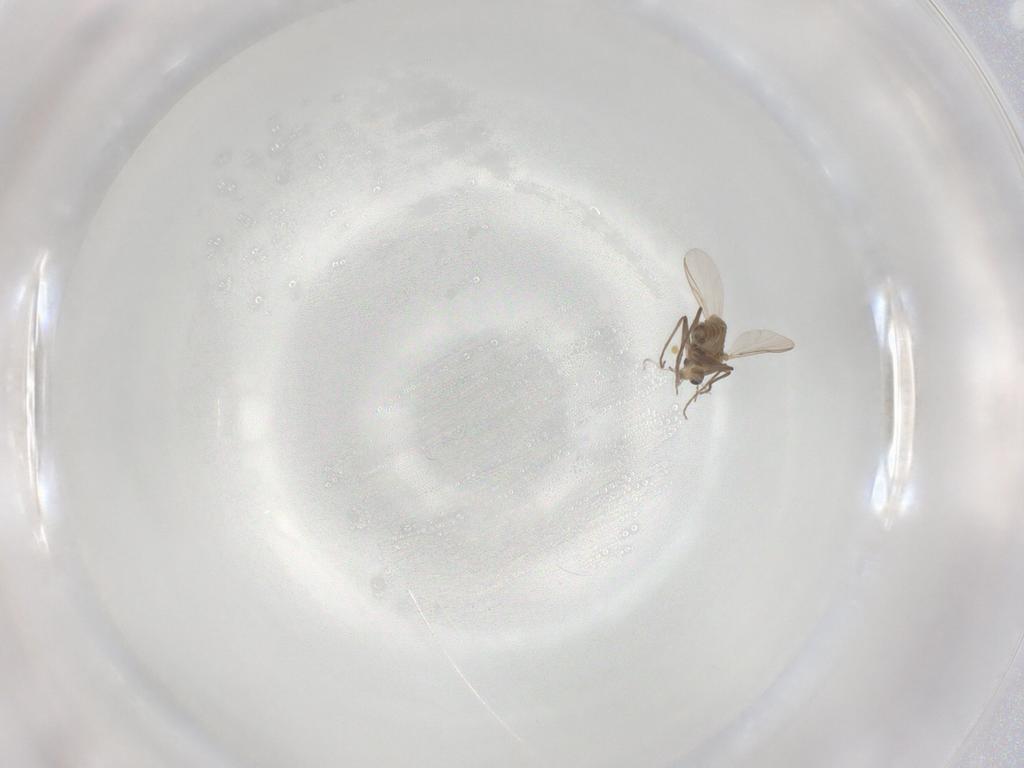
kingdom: Animalia
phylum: Arthropoda
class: Insecta
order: Diptera
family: Chironomidae
